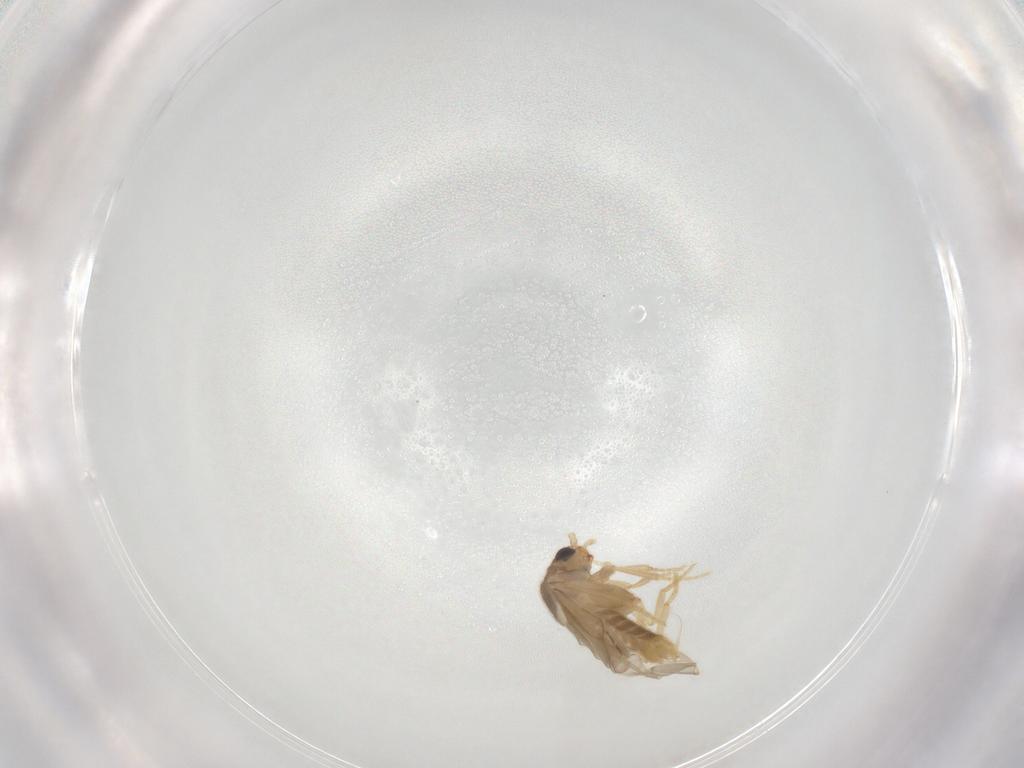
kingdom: Animalia
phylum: Arthropoda
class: Insecta
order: Coleoptera
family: Phengodidae
